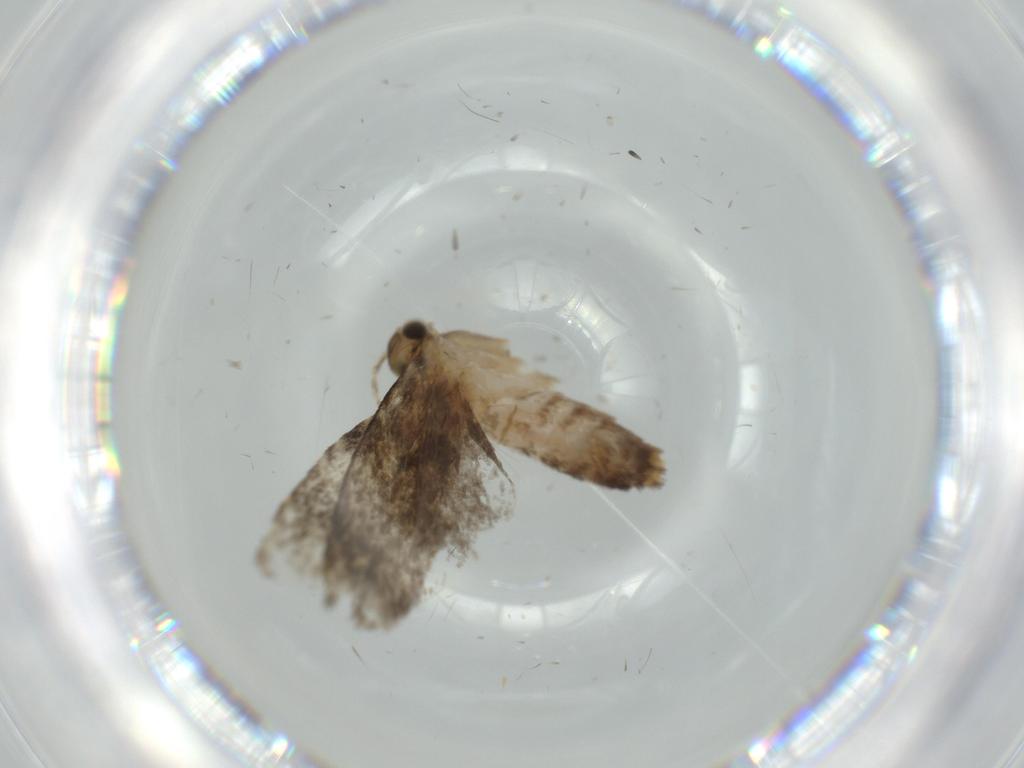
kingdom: Animalia
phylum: Arthropoda
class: Insecta
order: Lepidoptera
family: Tineidae
